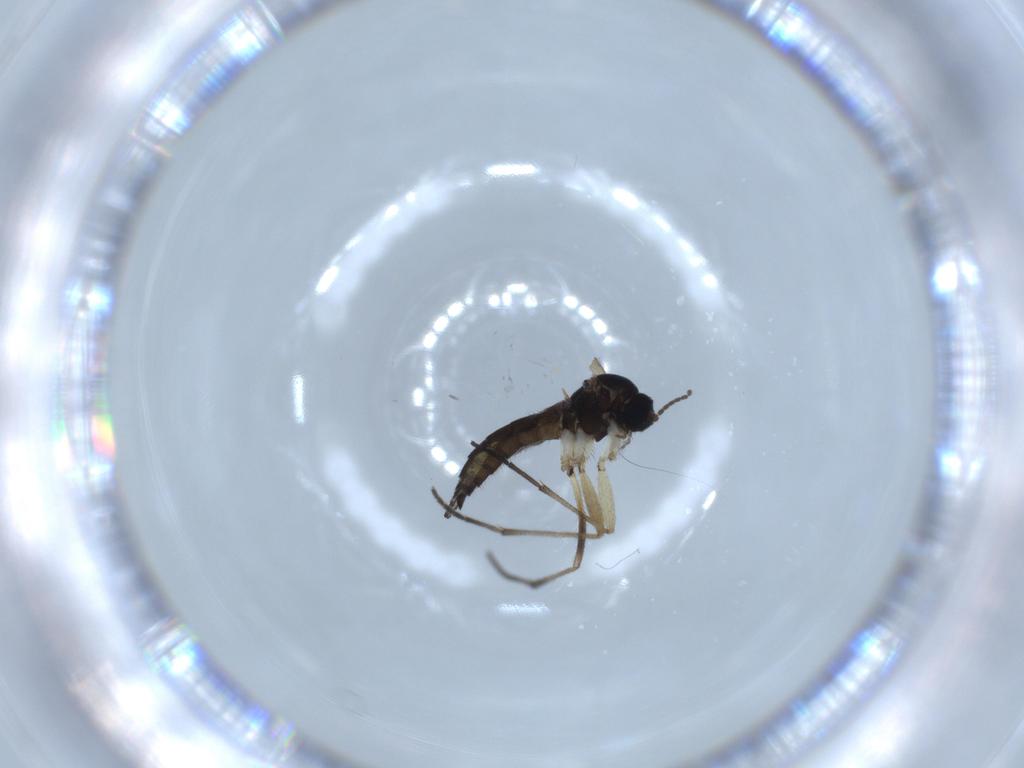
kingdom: Animalia
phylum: Arthropoda
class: Insecta
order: Diptera
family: Sciaridae
